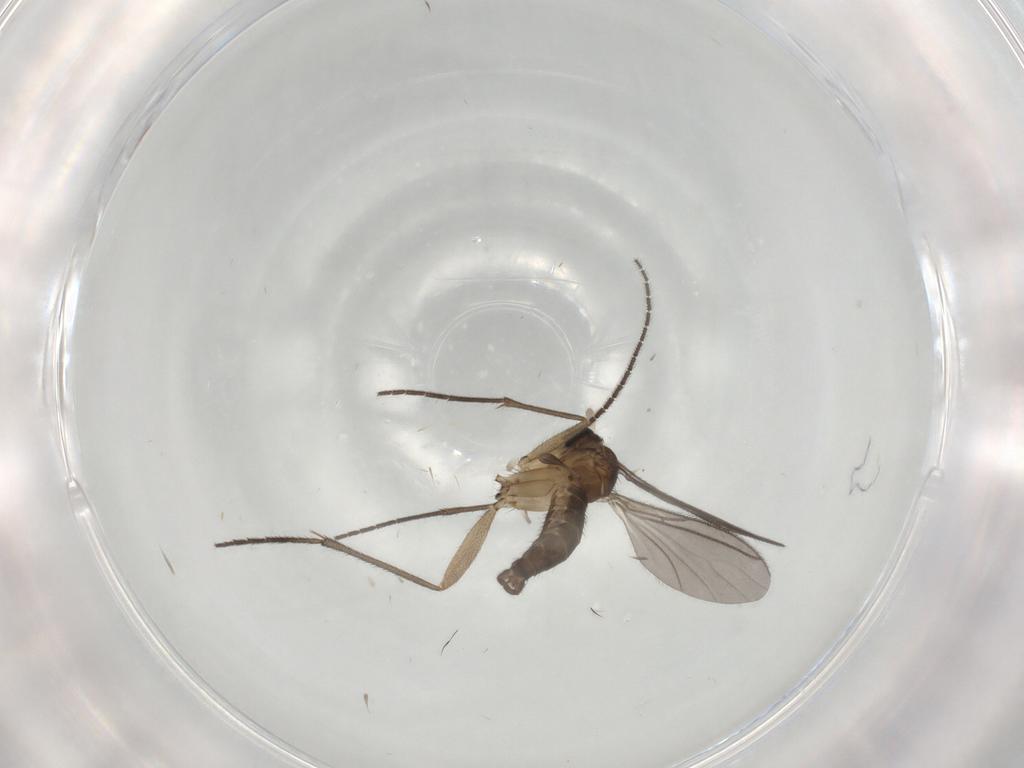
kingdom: Animalia
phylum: Arthropoda
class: Insecta
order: Diptera
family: Sciaridae
